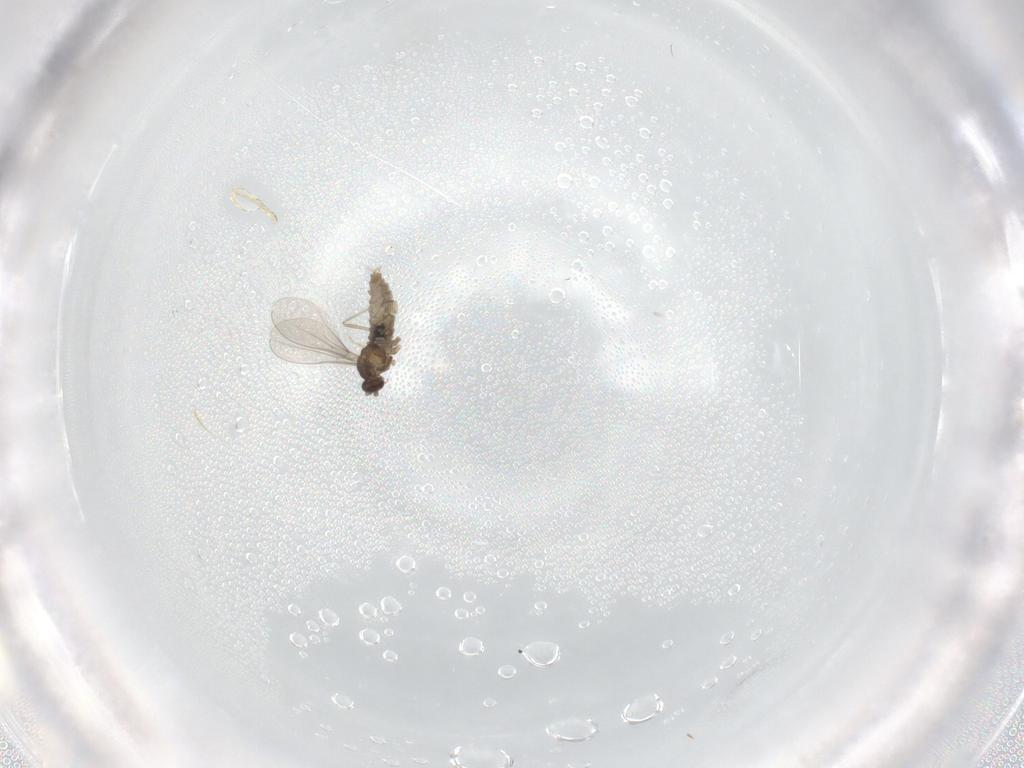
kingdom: Animalia
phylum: Arthropoda
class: Insecta
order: Diptera
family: Cecidomyiidae
